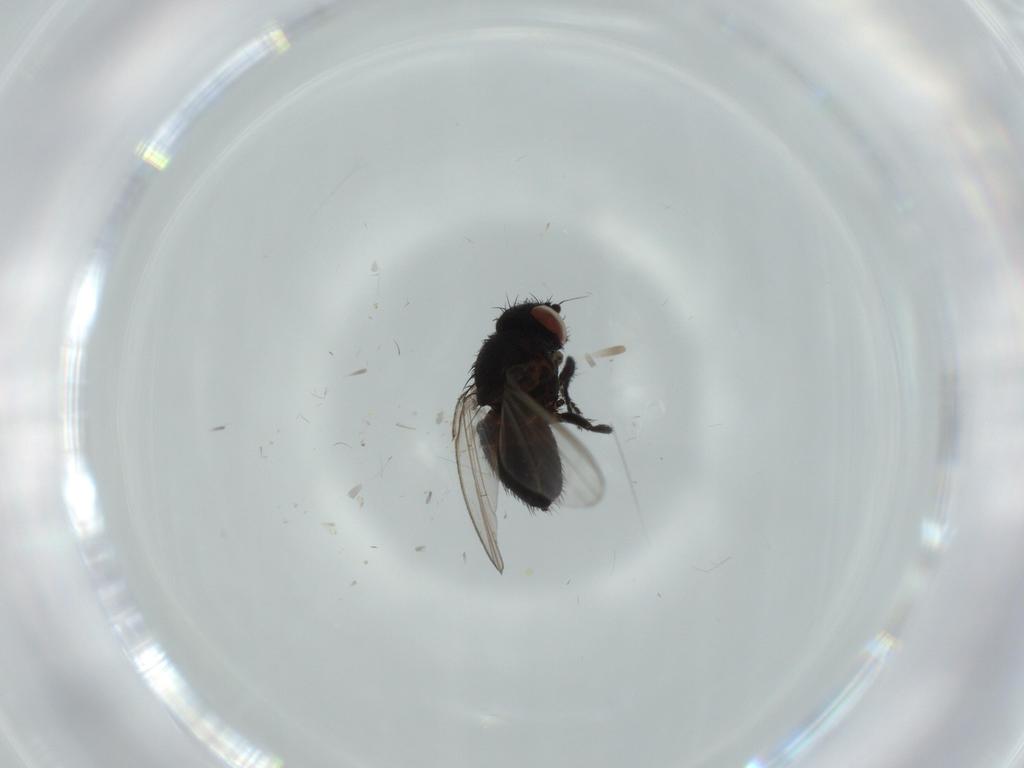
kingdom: Animalia
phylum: Arthropoda
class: Insecta
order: Diptera
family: Milichiidae
